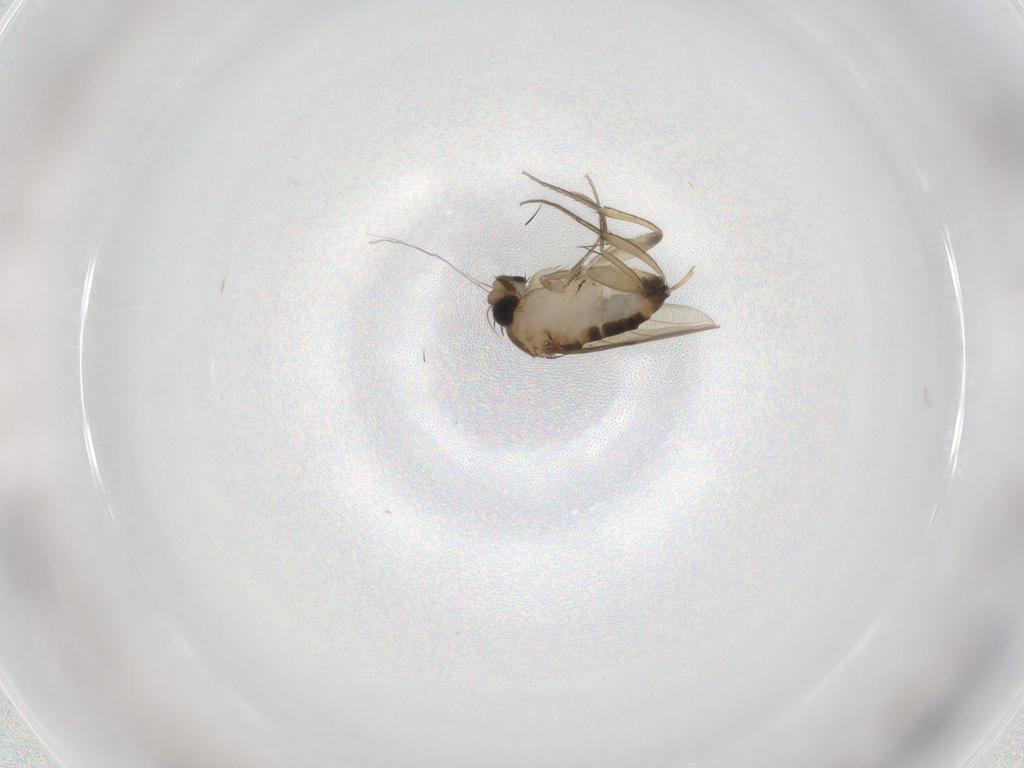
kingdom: Animalia
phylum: Arthropoda
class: Insecta
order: Diptera
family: Phoridae
